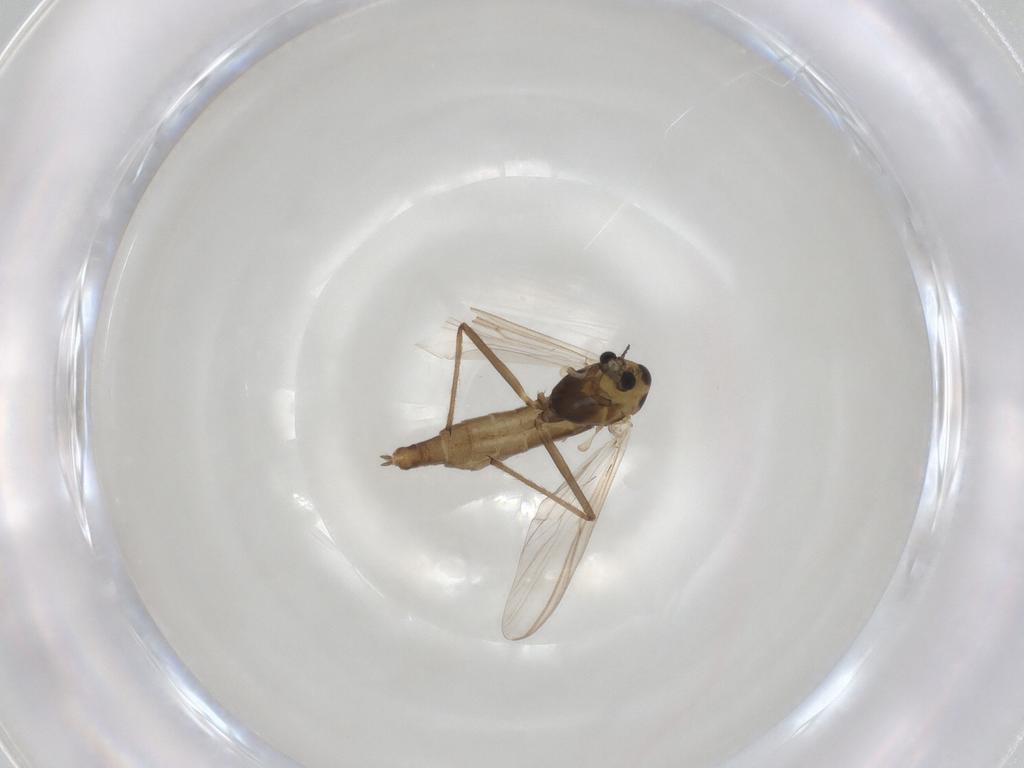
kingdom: Animalia
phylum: Arthropoda
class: Insecta
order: Diptera
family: Chironomidae
